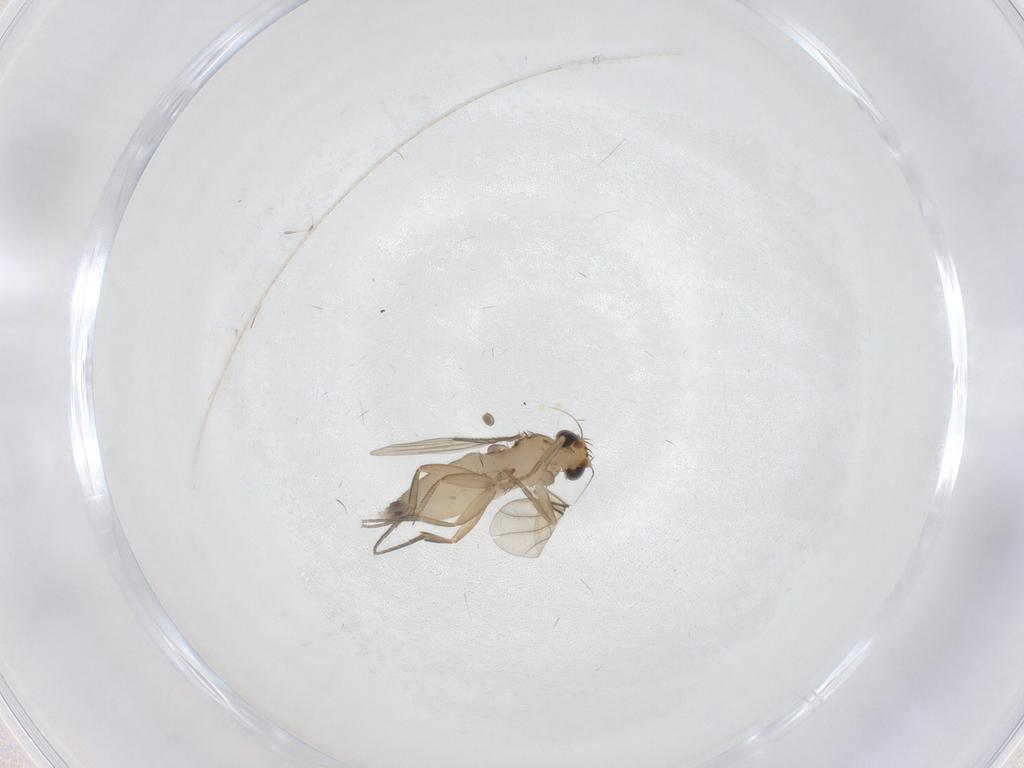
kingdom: Animalia
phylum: Arthropoda
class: Insecta
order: Diptera
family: Phoridae
